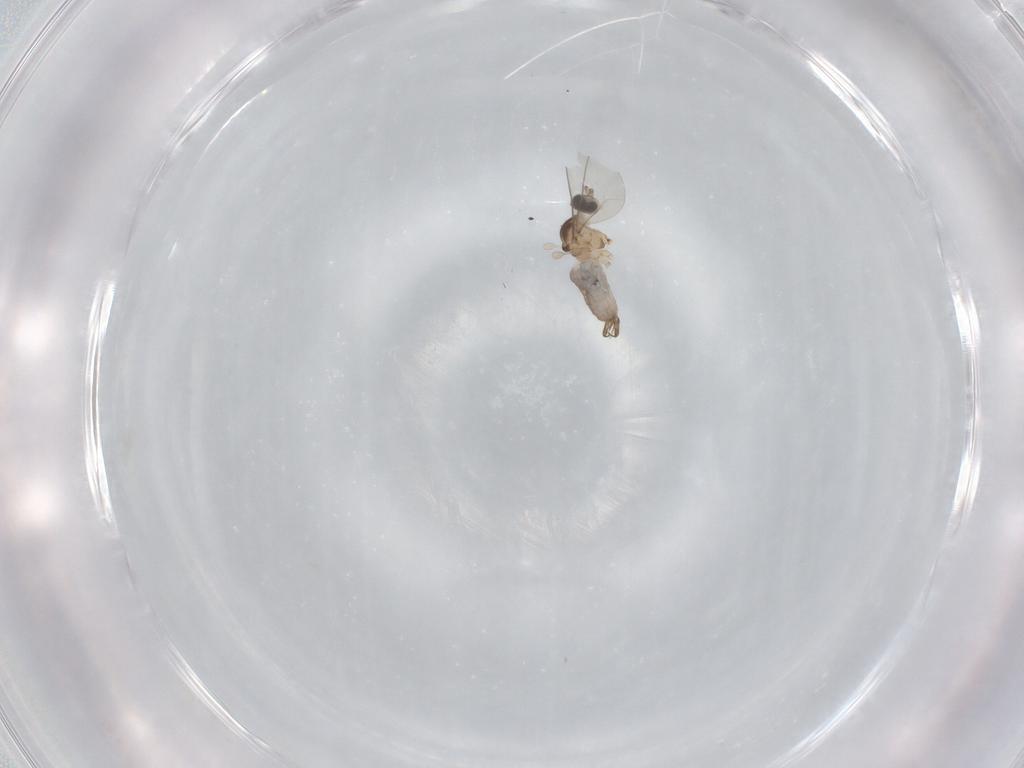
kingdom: Animalia
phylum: Arthropoda
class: Insecta
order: Diptera
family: Cecidomyiidae
